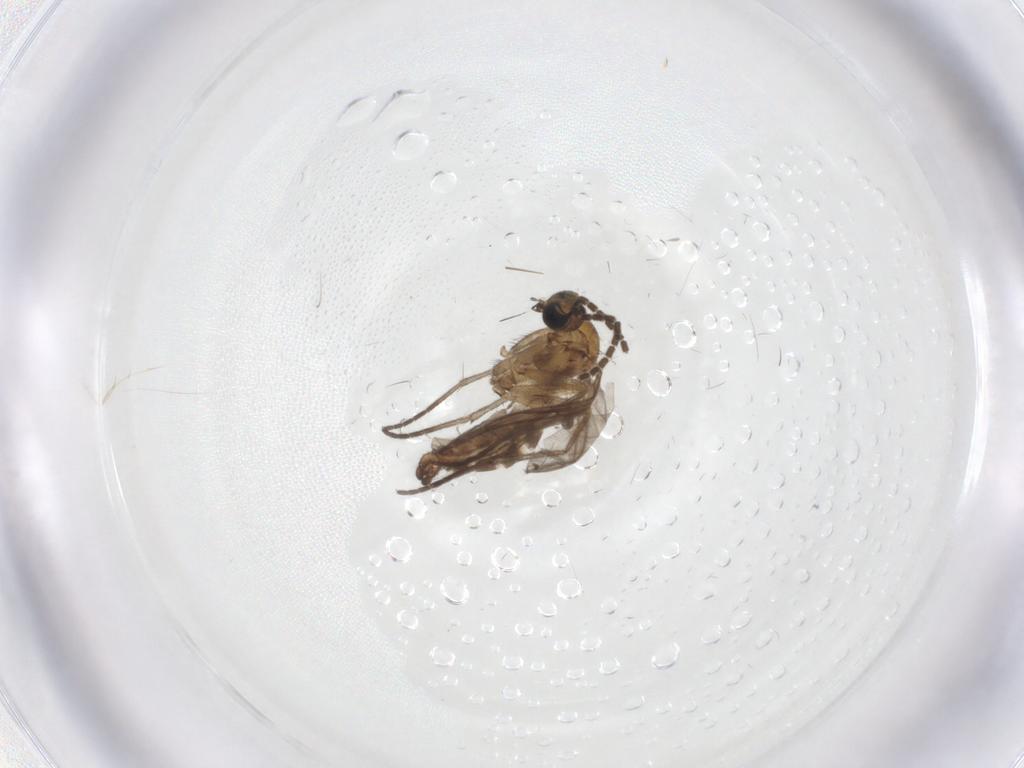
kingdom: Animalia
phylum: Arthropoda
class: Insecta
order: Diptera
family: Sciaridae
